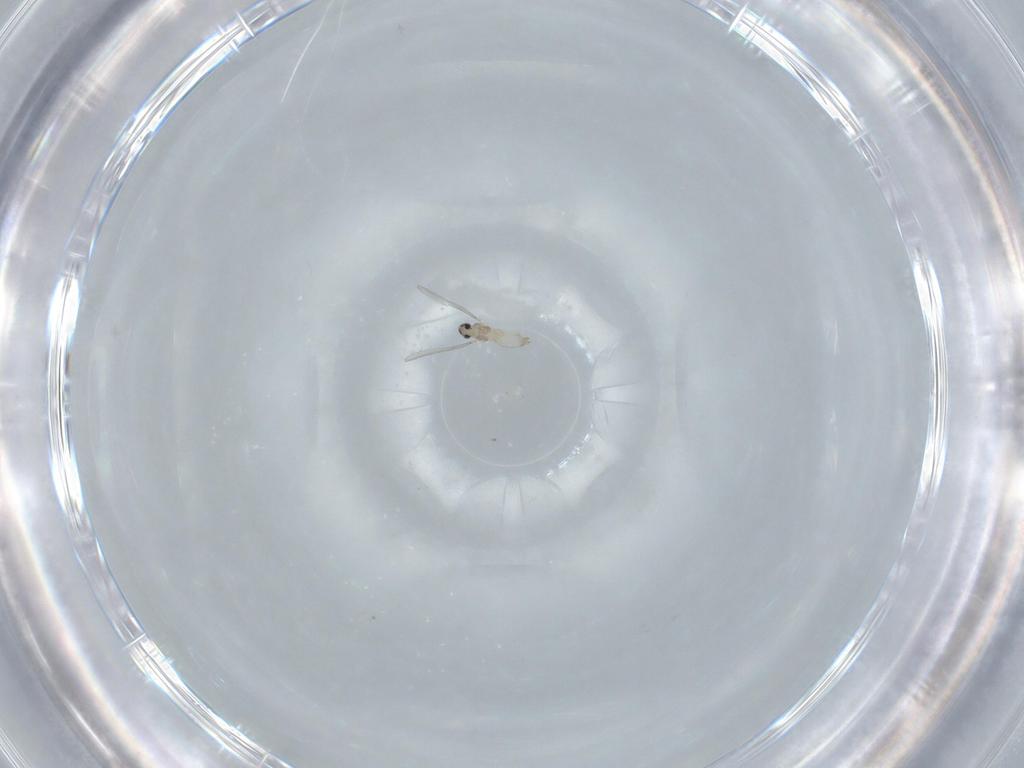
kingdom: Animalia
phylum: Arthropoda
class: Insecta
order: Diptera
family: Cecidomyiidae
